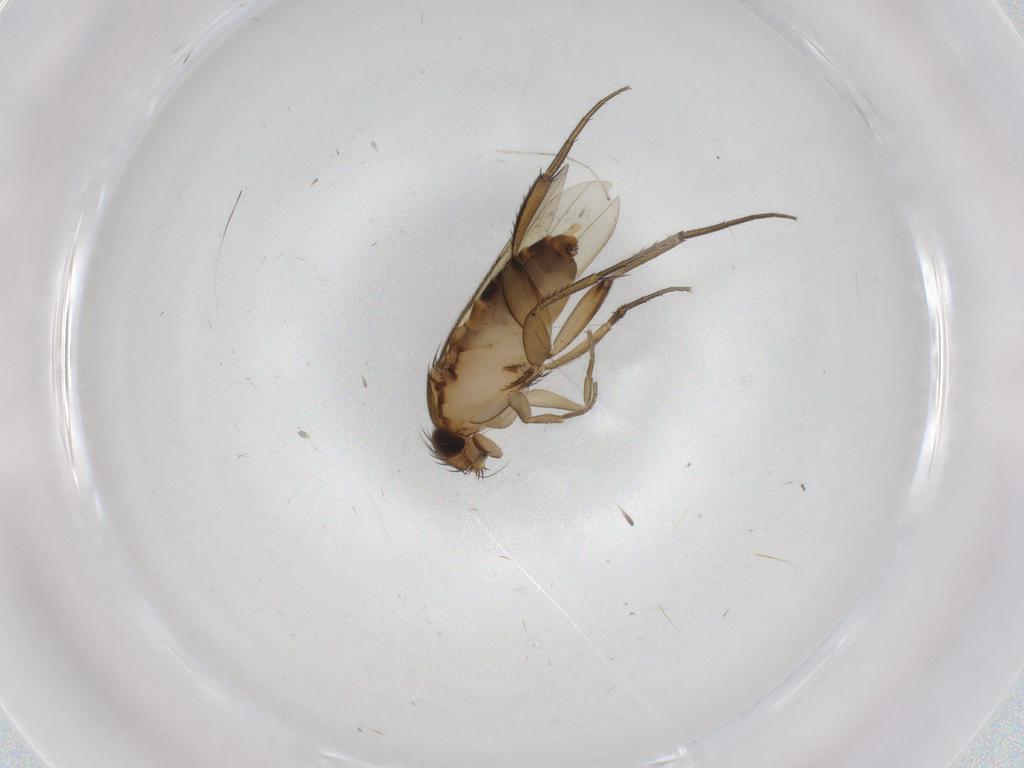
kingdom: Animalia
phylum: Arthropoda
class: Insecta
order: Diptera
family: Phoridae
